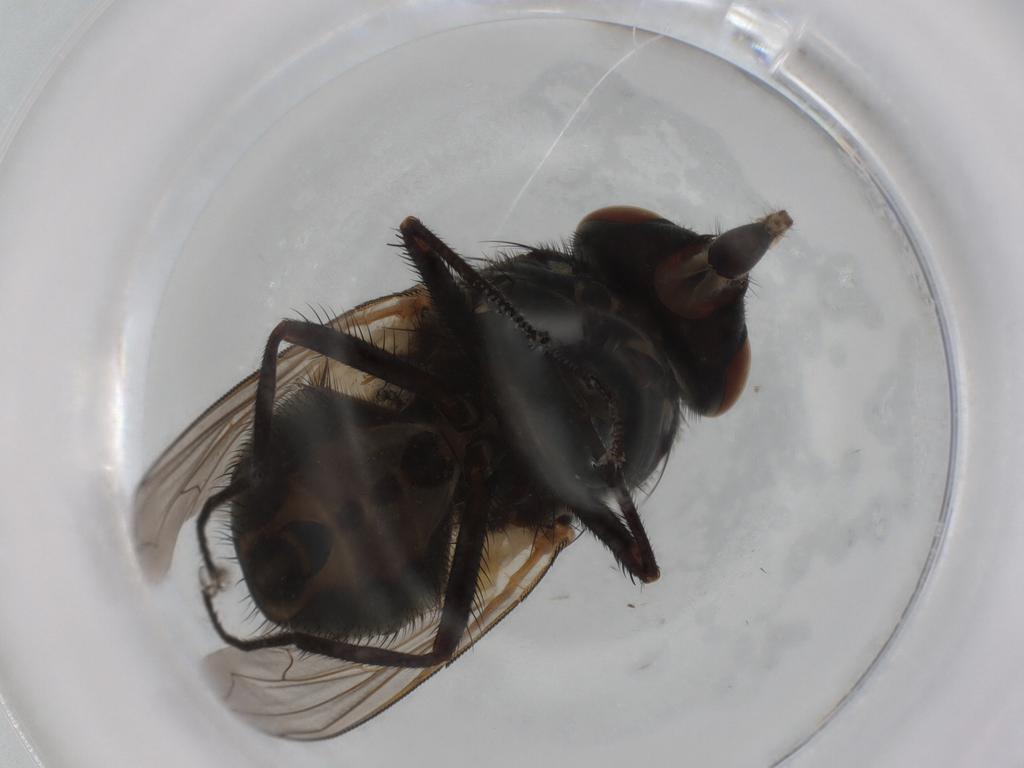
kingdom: Animalia
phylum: Arthropoda
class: Insecta
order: Diptera
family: Muscidae
